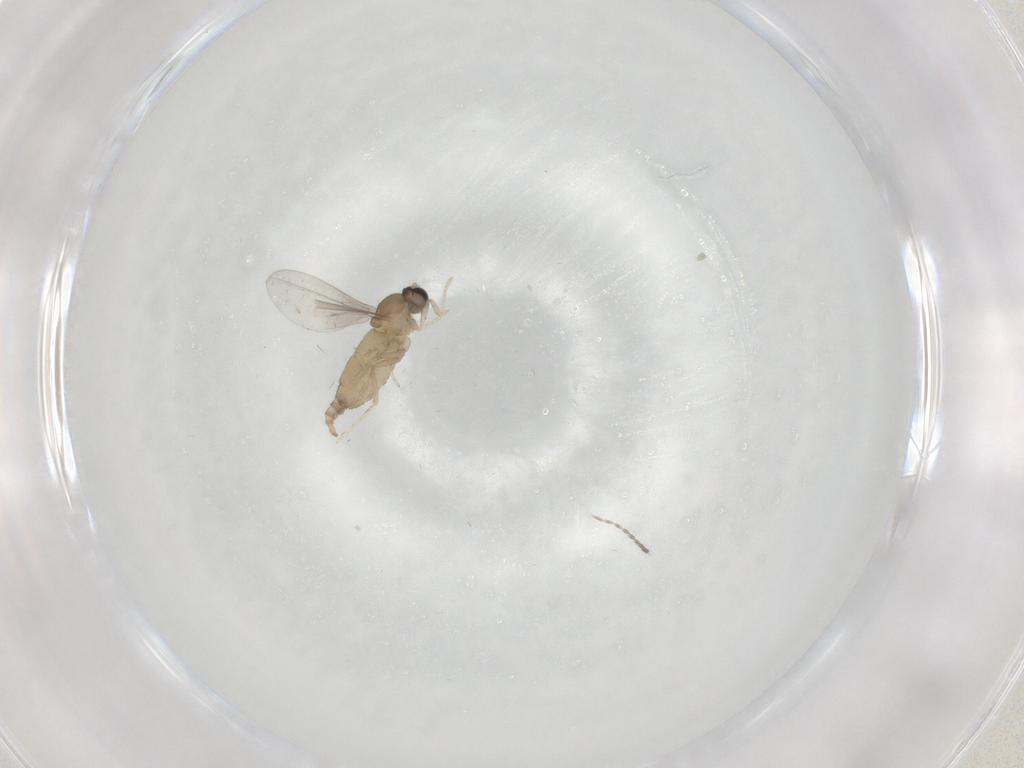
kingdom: Animalia
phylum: Arthropoda
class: Insecta
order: Diptera
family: Cecidomyiidae
